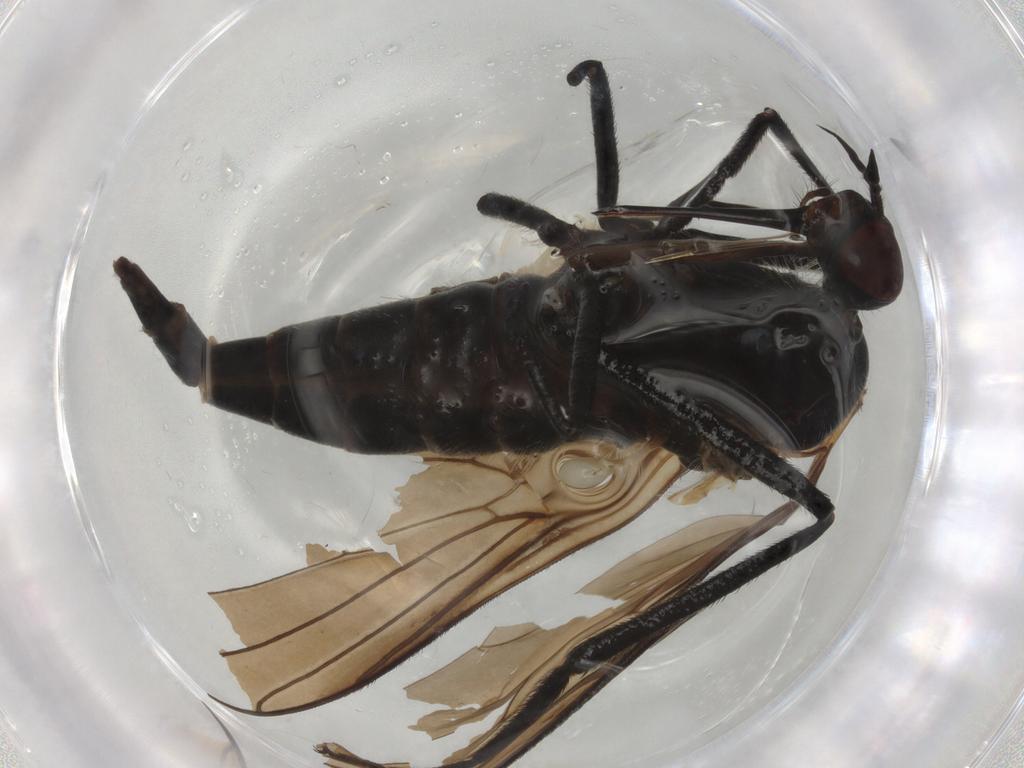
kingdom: Animalia
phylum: Arthropoda
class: Insecta
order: Diptera
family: Empididae
